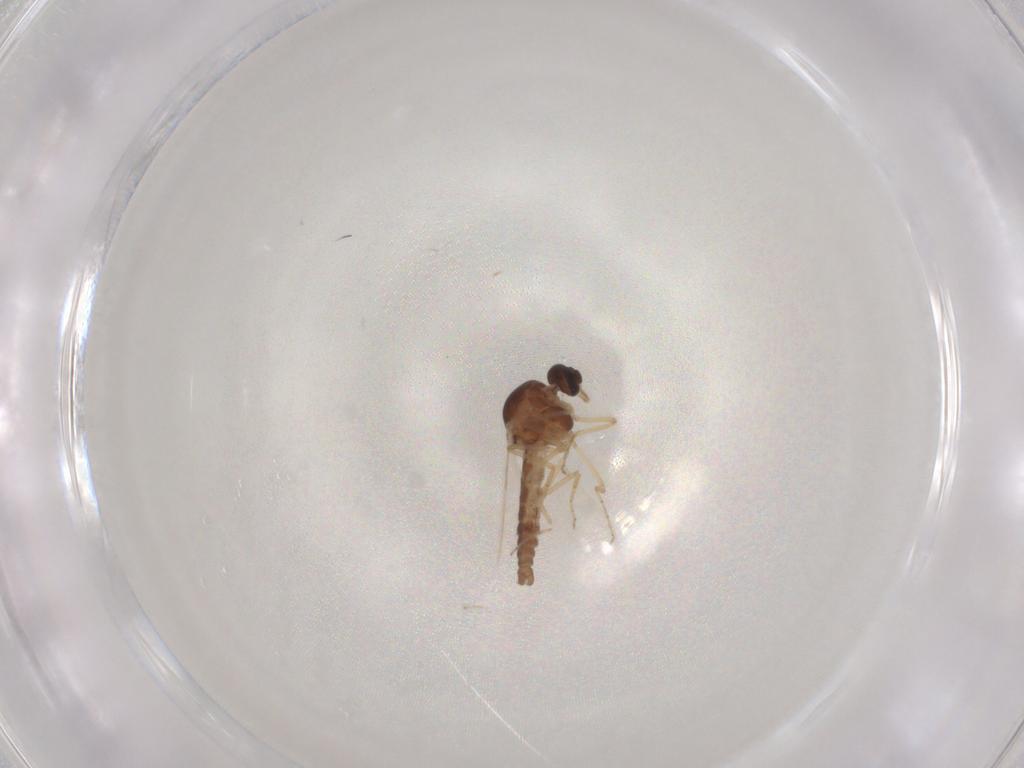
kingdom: Animalia
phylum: Arthropoda
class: Insecta
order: Diptera
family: Ceratopogonidae
